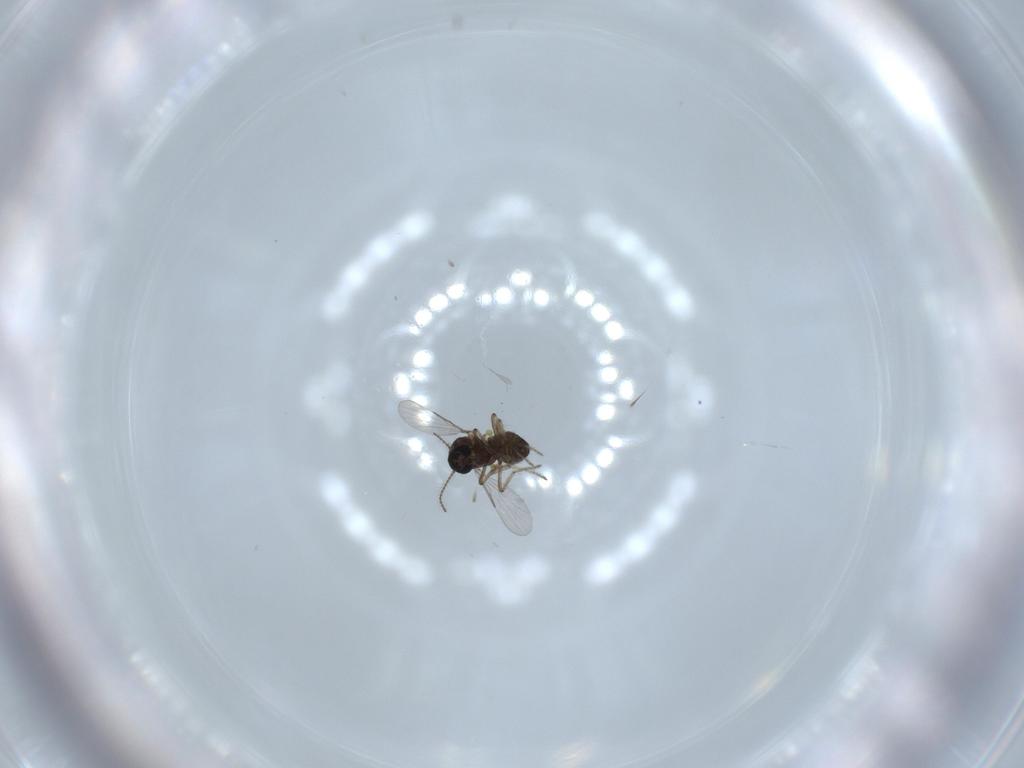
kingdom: Animalia
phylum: Arthropoda
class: Insecta
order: Diptera
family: Ceratopogonidae
